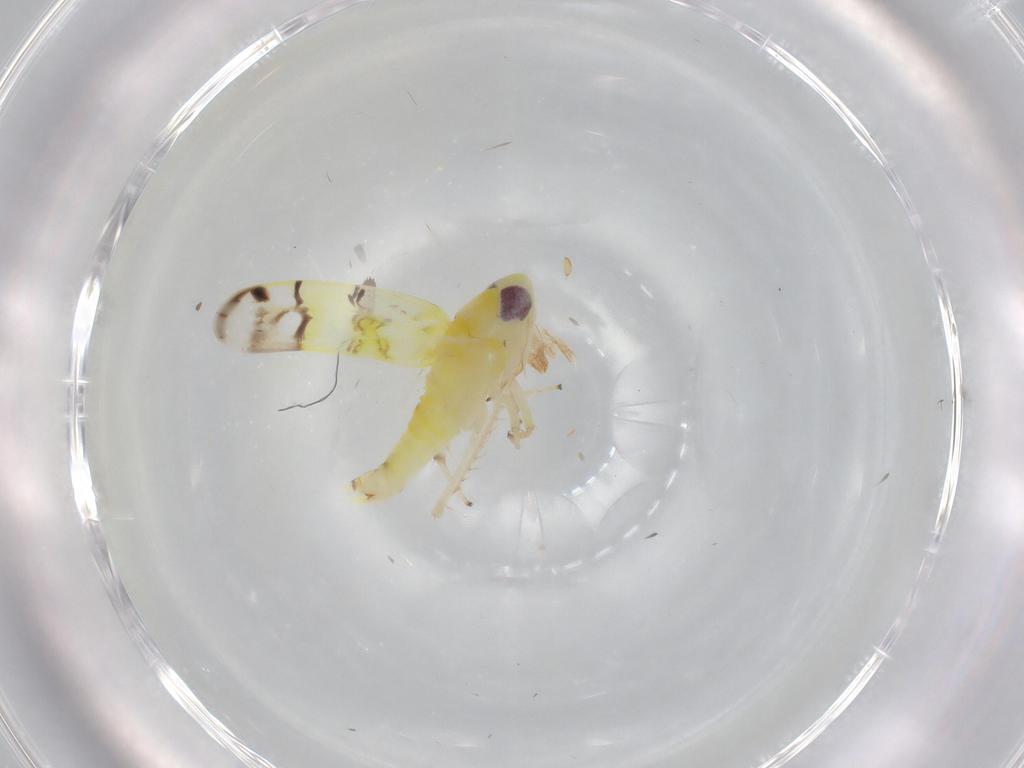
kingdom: Animalia
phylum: Arthropoda
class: Insecta
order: Hemiptera
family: Cicadellidae
